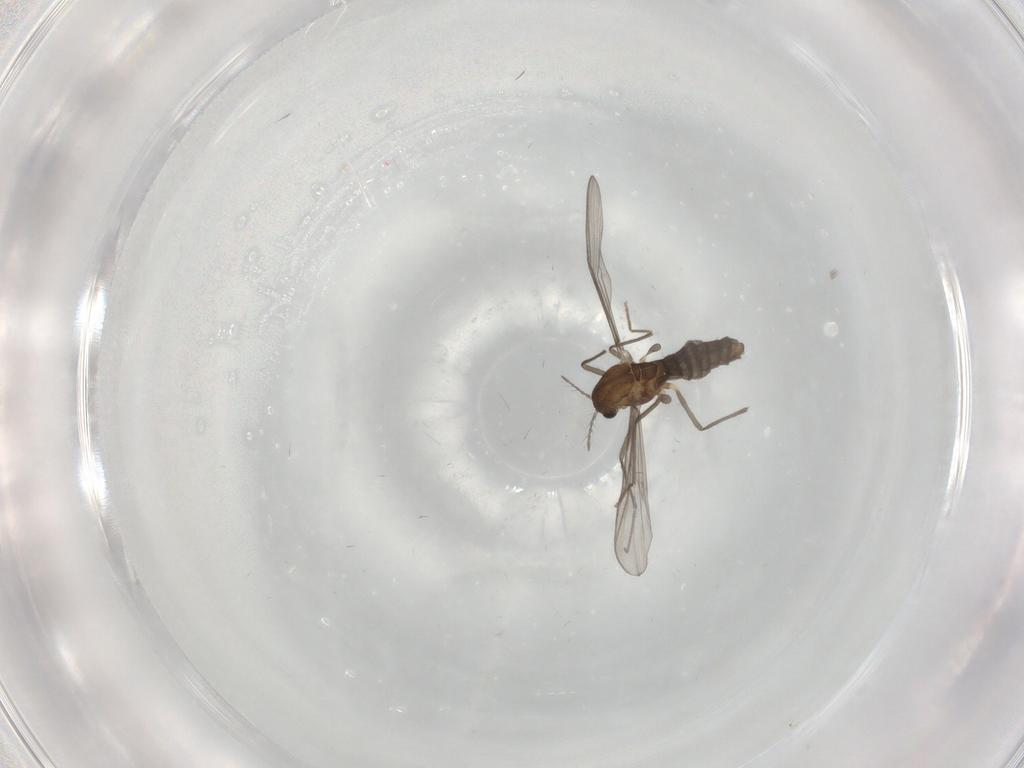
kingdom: Animalia
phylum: Arthropoda
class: Insecta
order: Diptera
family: Chironomidae
